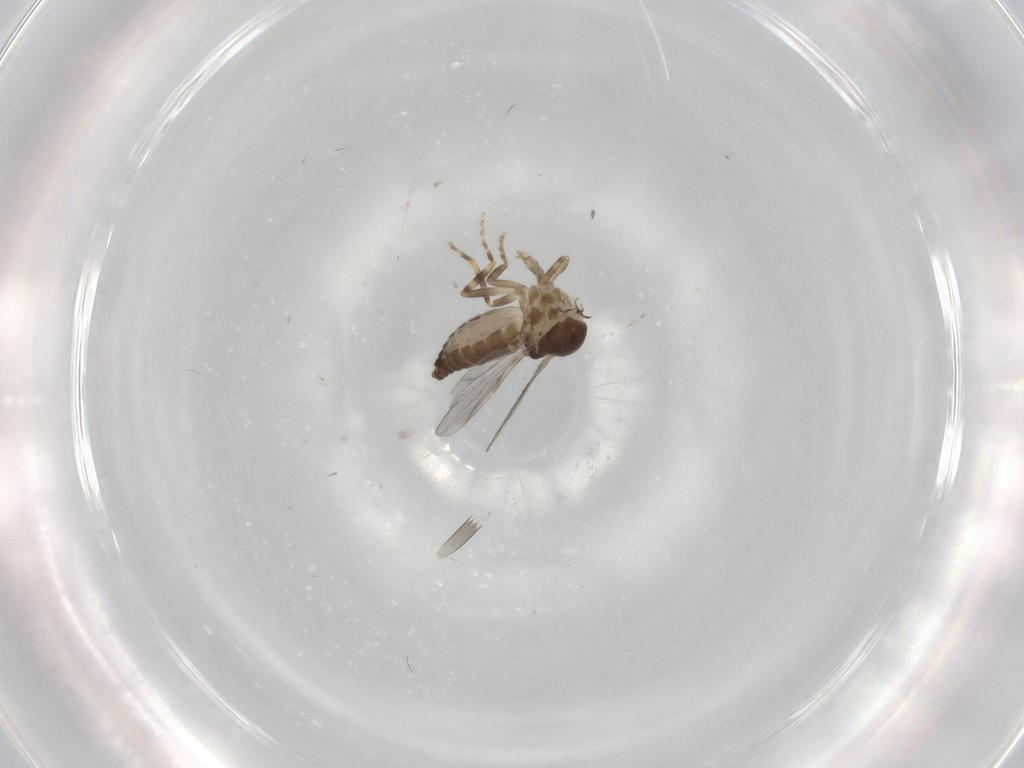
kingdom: Animalia
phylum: Arthropoda
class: Insecta
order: Diptera
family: Ceratopogonidae
